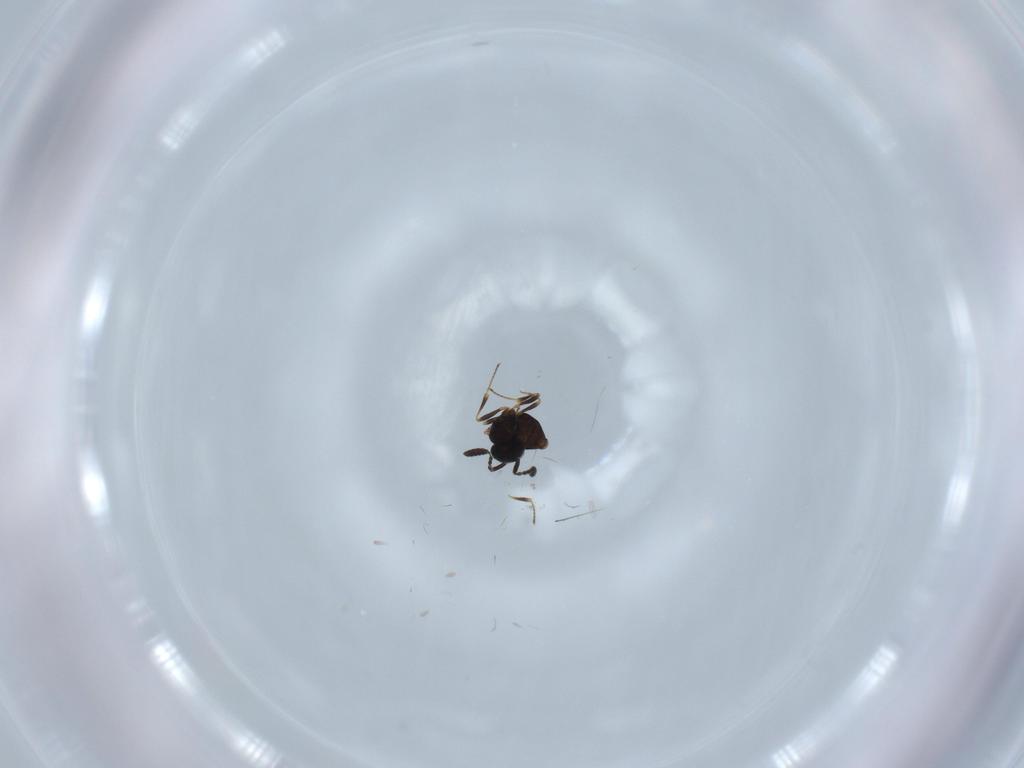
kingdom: Animalia
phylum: Arthropoda
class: Insecta
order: Hymenoptera
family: Scelionidae
